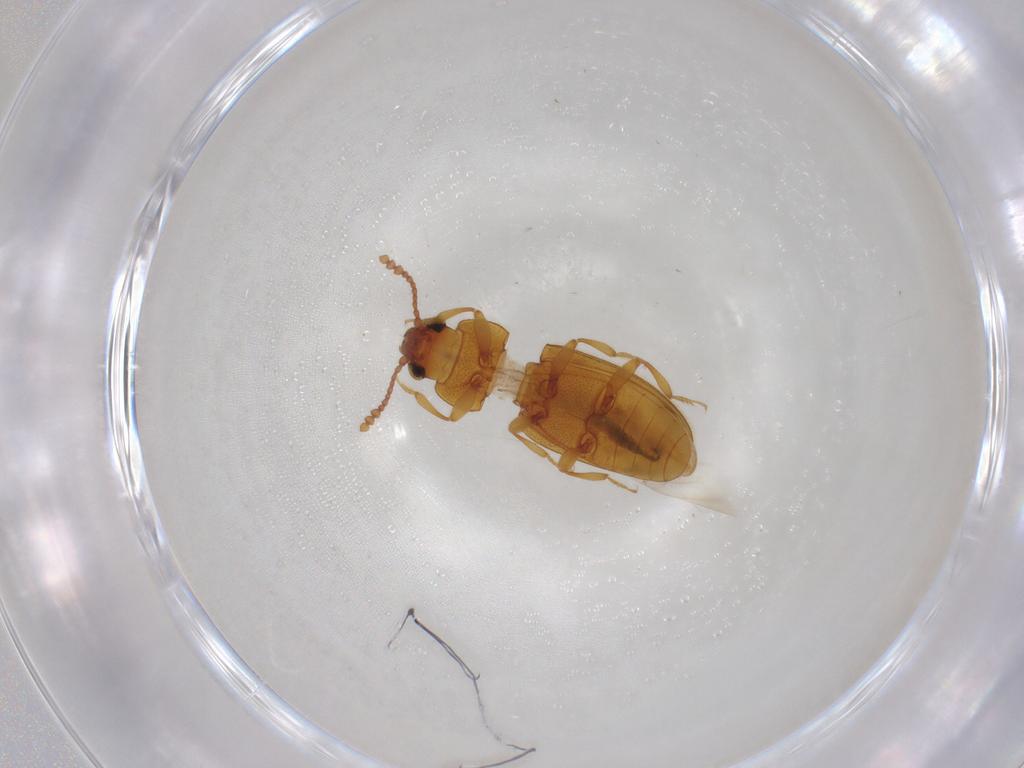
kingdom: Animalia
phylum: Arthropoda
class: Insecta
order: Coleoptera
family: Erotylidae
